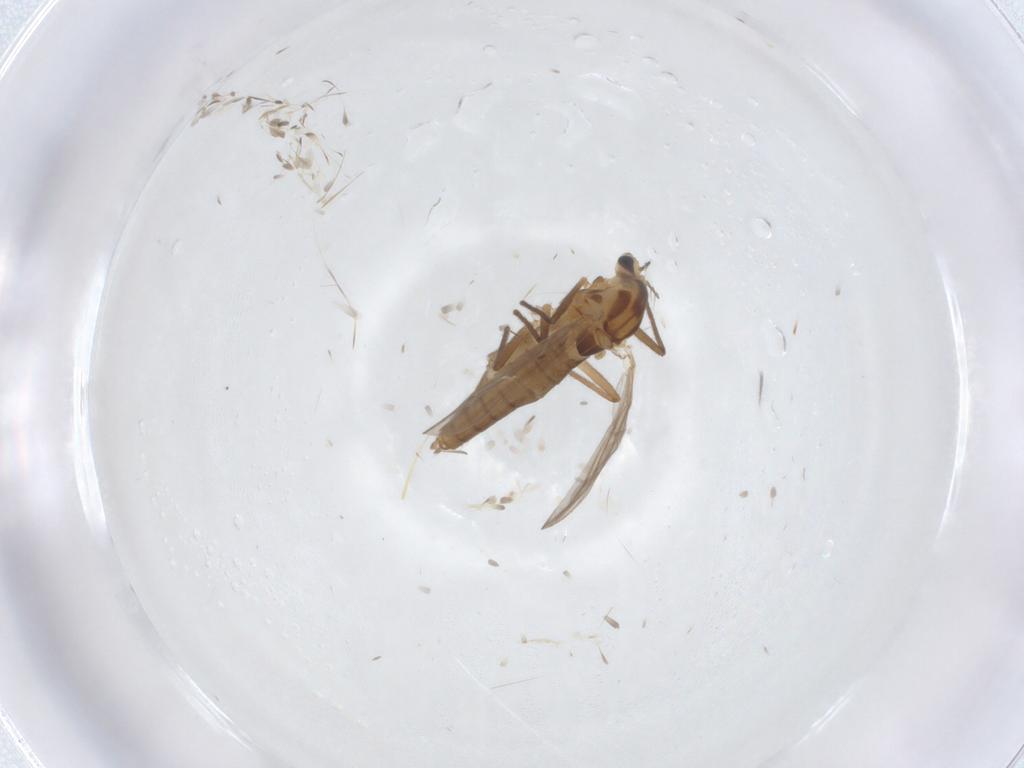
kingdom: Animalia
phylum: Arthropoda
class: Insecta
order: Diptera
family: Chironomidae
